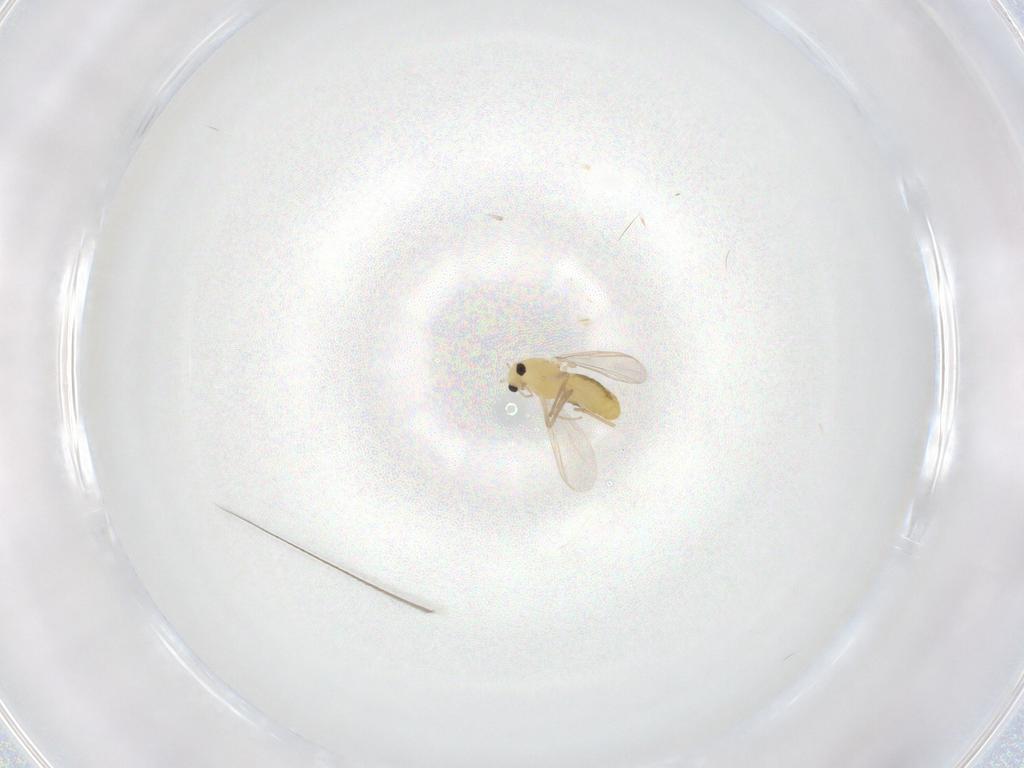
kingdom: Animalia
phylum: Arthropoda
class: Insecta
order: Diptera
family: Chironomidae
